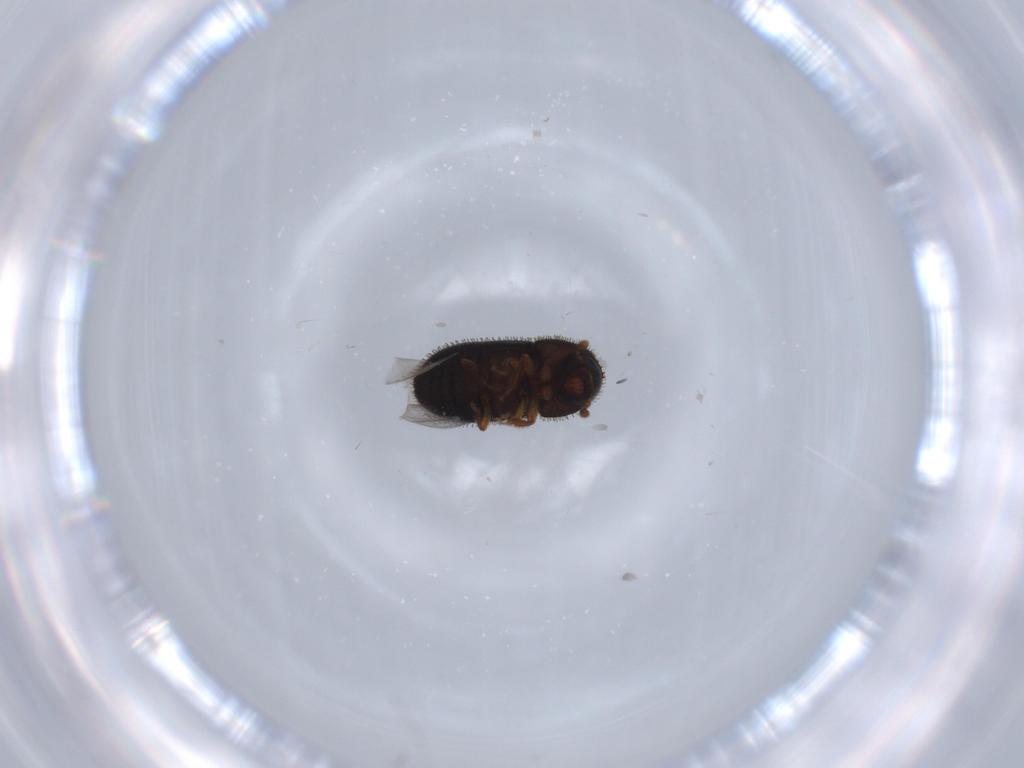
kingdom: Animalia
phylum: Arthropoda
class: Insecta
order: Coleoptera
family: Curculionidae
